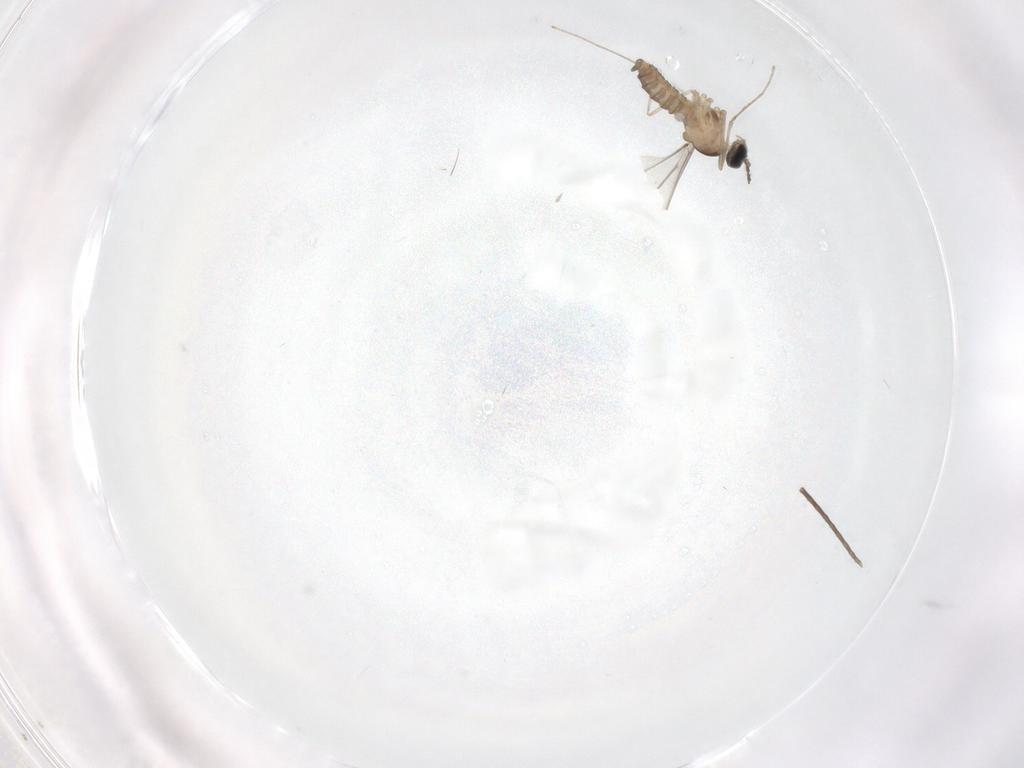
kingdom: Animalia
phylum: Arthropoda
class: Insecta
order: Diptera
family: Cecidomyiidae
